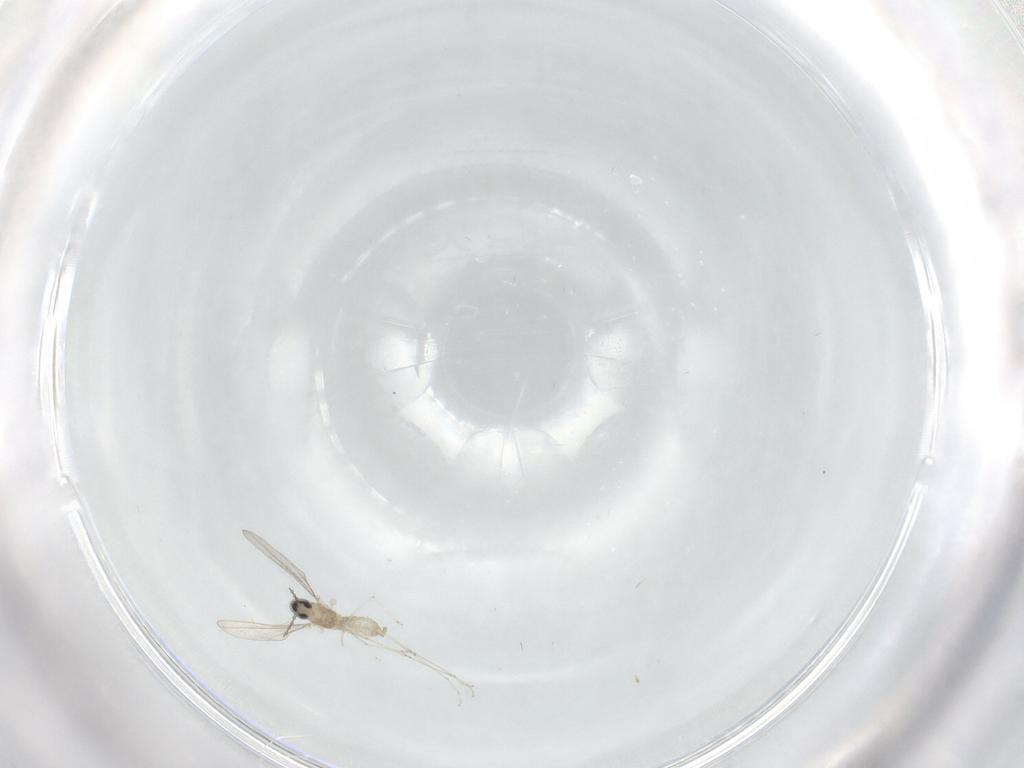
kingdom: Animalia
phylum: Arthropoda
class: Insecta
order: Diptera
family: Cecidomyiidae
